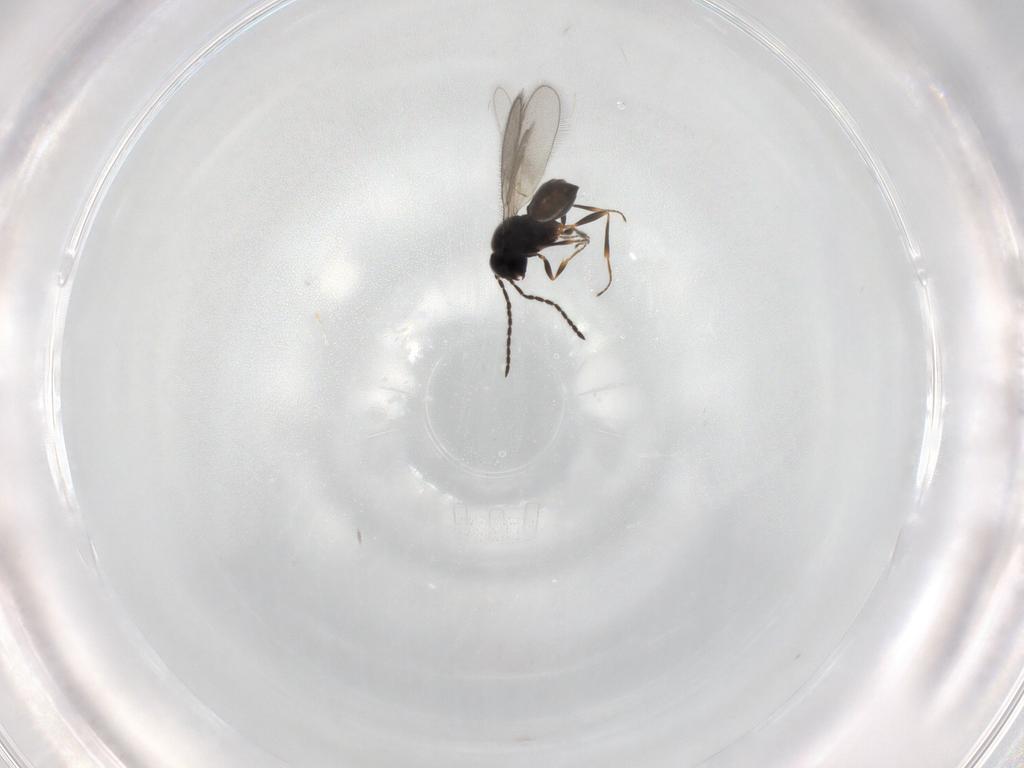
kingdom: Animalia
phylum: Arthropoda
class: Insecta
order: Hymenoptera
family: Scelionidae
